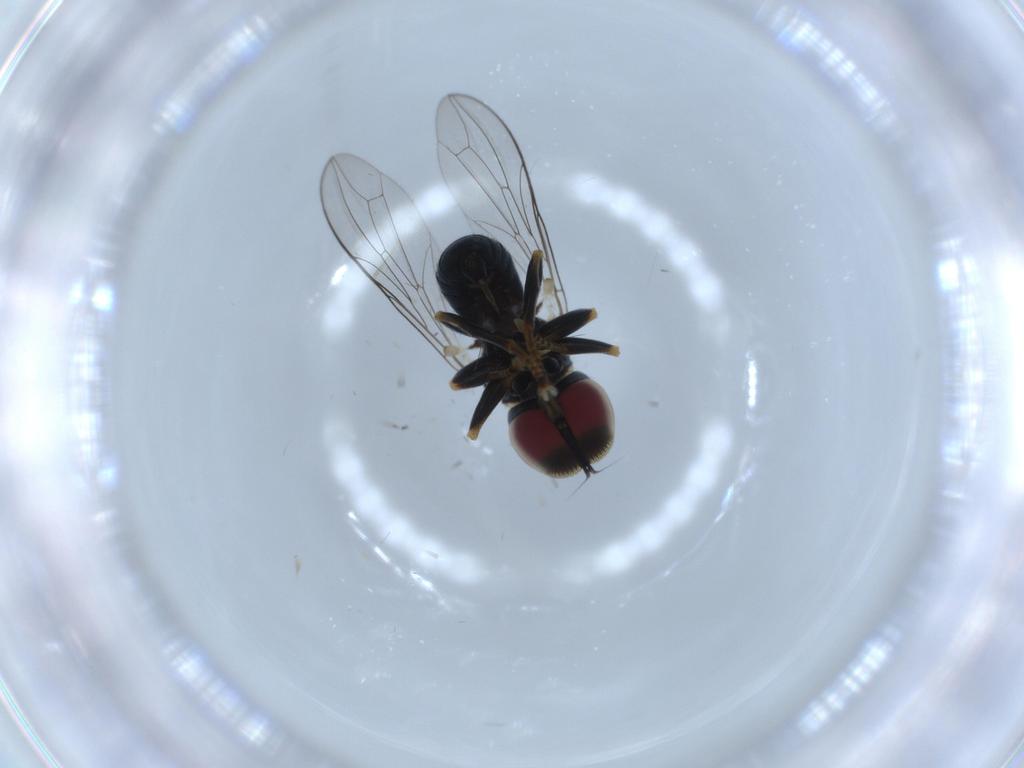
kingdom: Animalia
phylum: Arthropoda
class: Insecta
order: Diptera
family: Pipunculidae
